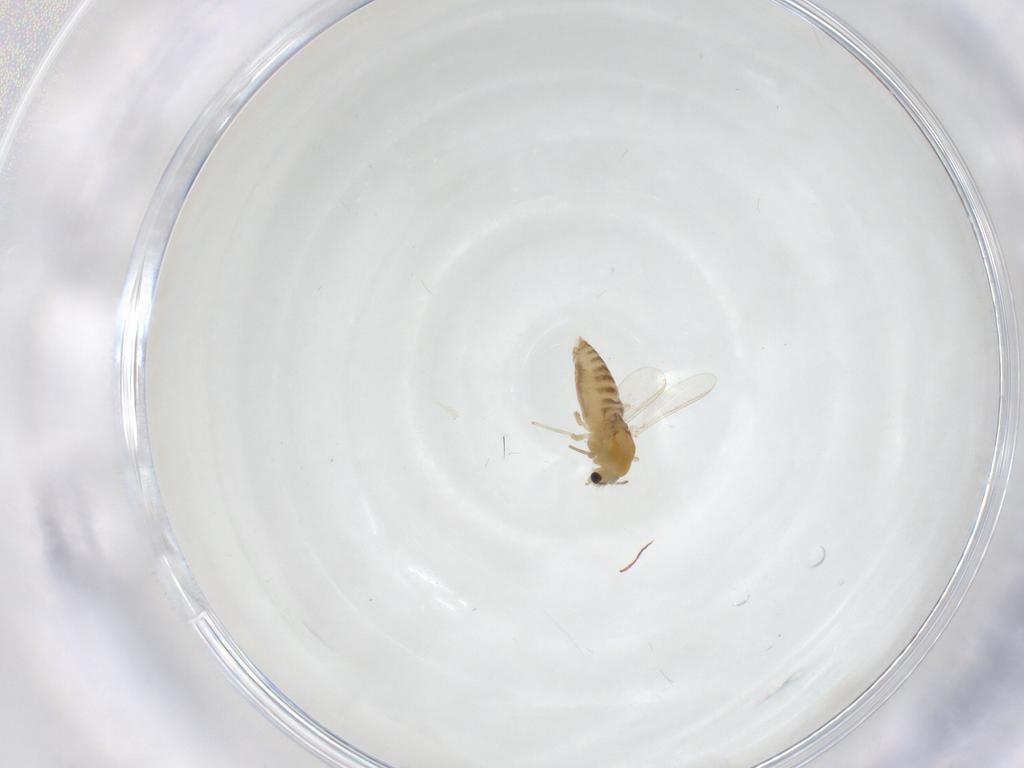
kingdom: Animalia
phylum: Arthropoda
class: Insecta
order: Diptera
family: Chironomidae
